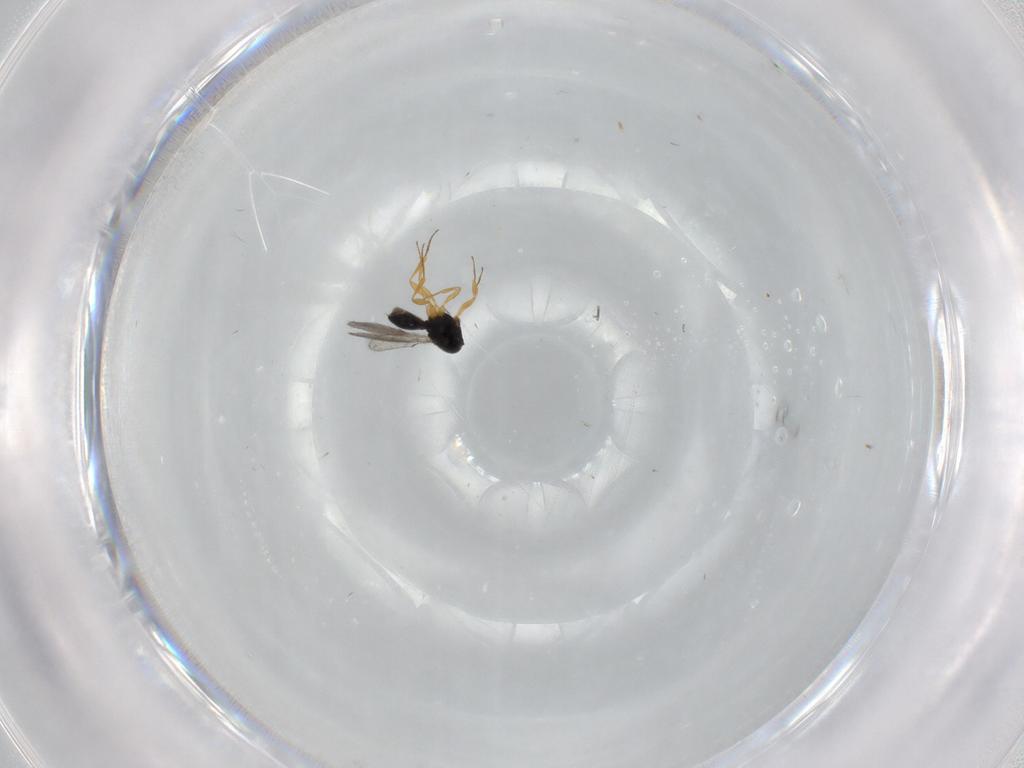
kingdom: Animalia
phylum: Arthropoda
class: Insecta
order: Hymenoptera
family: Scelionidae
